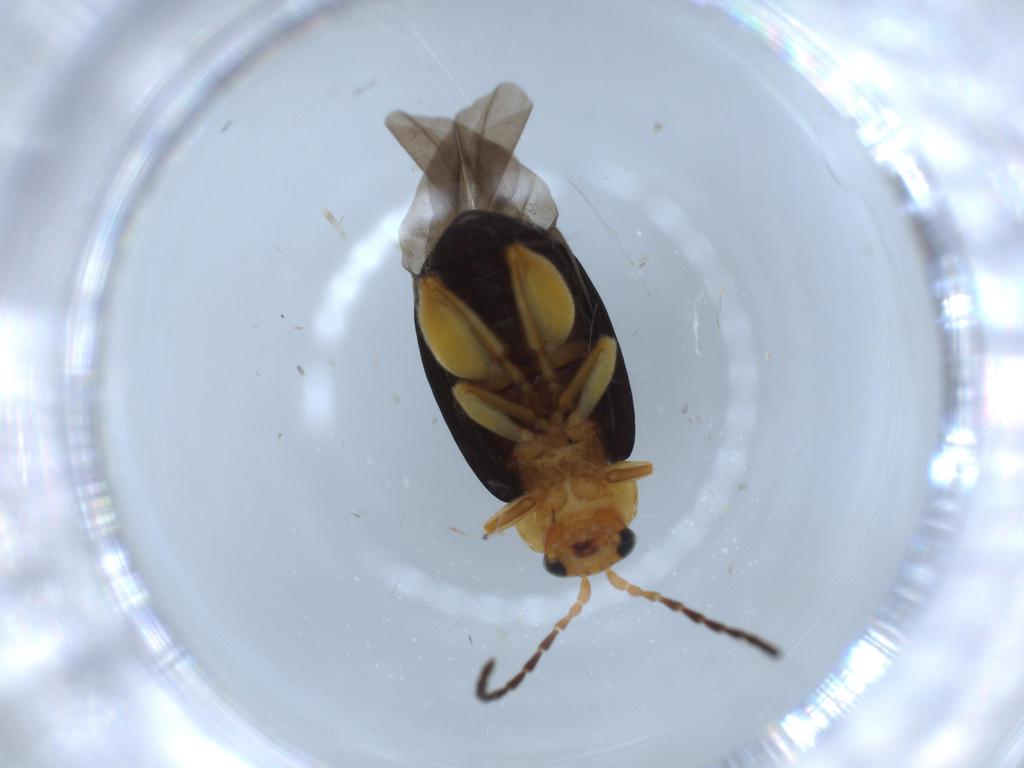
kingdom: Animalia
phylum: Arthropoda
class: Insecta
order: Coleoptera
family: Chrysomelidae
